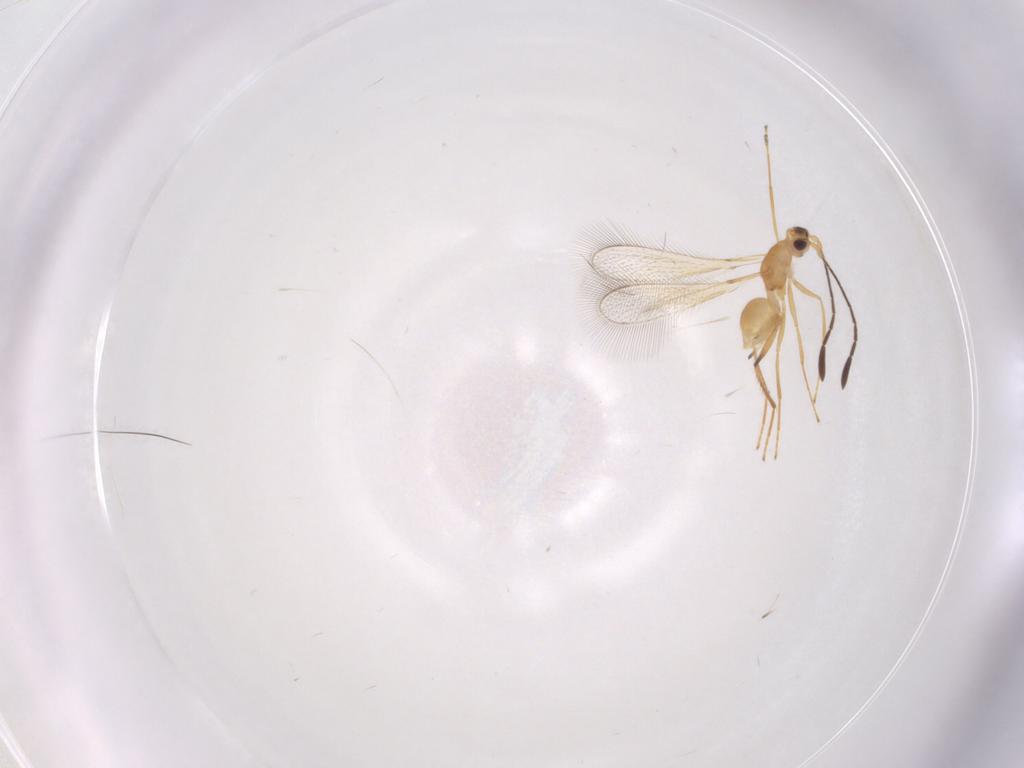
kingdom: Animalia
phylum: Arthropoda
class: Insecta
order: Hymenoptera
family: Mymaridae
